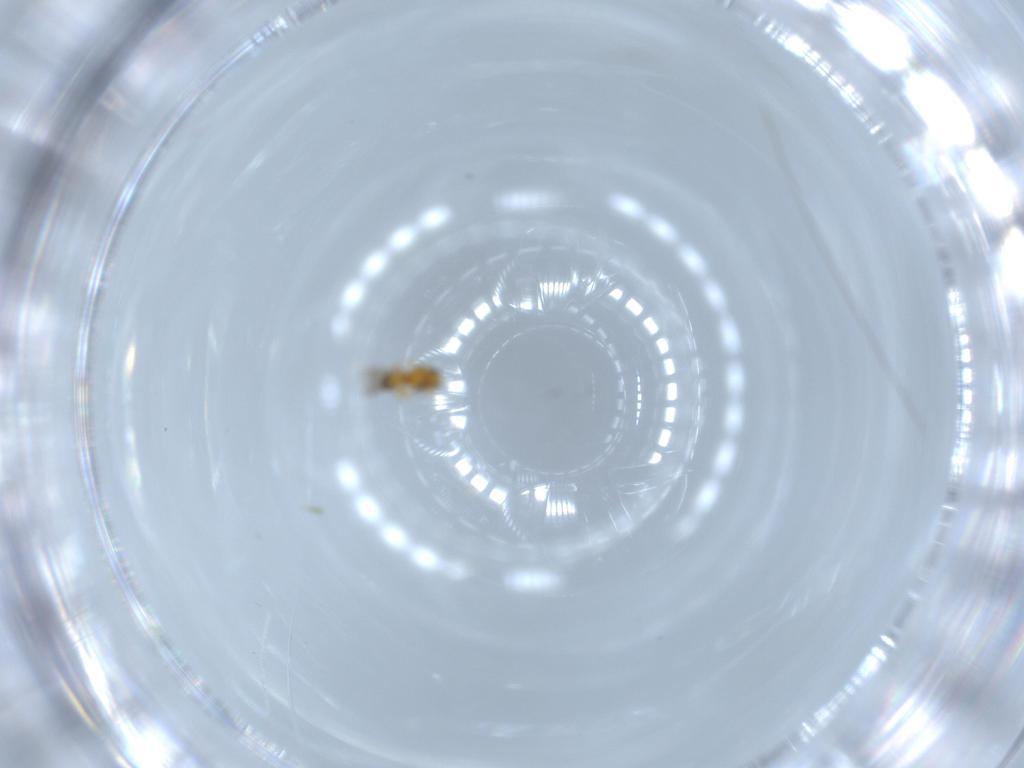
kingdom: Animalia
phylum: Arthropoda
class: Insecta
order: Hymenoptera
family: Platygastridae
